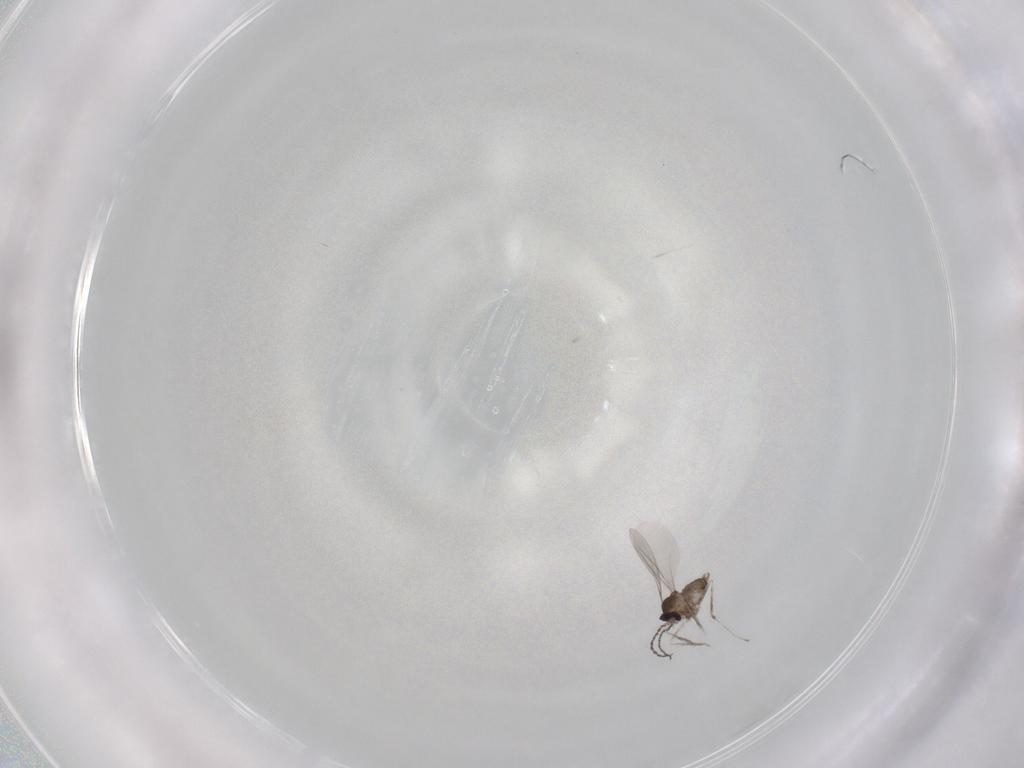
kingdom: Animalia
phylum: Arthropoda
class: Insecta
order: Diptera
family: Cecidomyiidae
